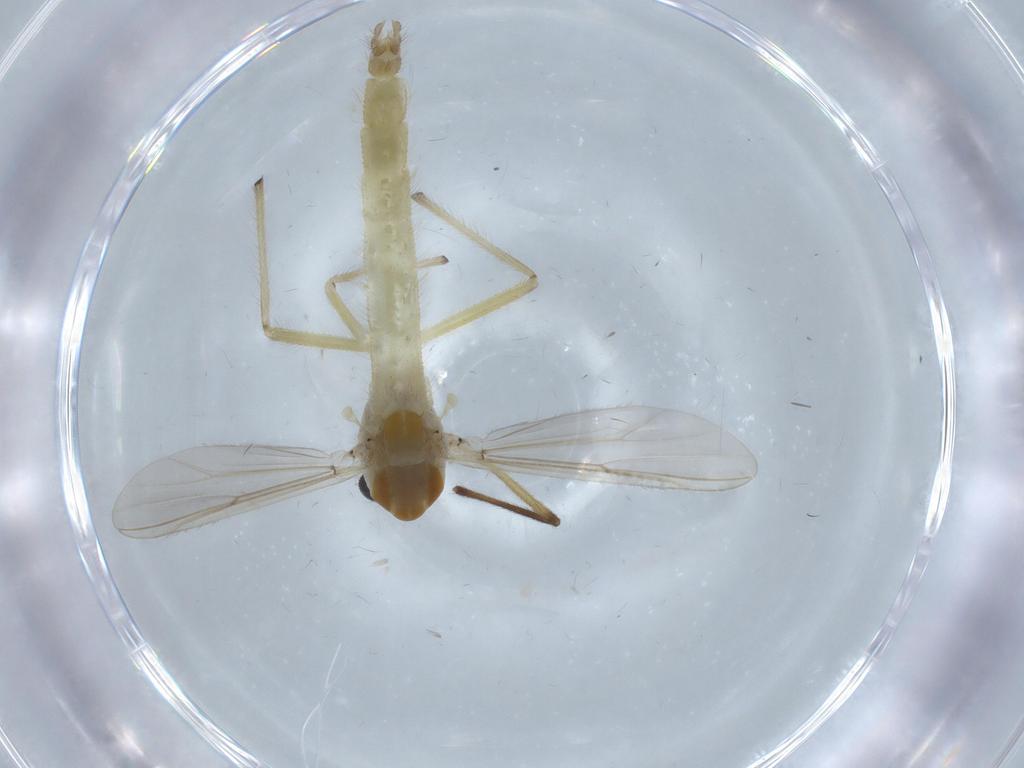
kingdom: Animalia
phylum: Arthropoda
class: Insecta
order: Diptera
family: Chironomidae
